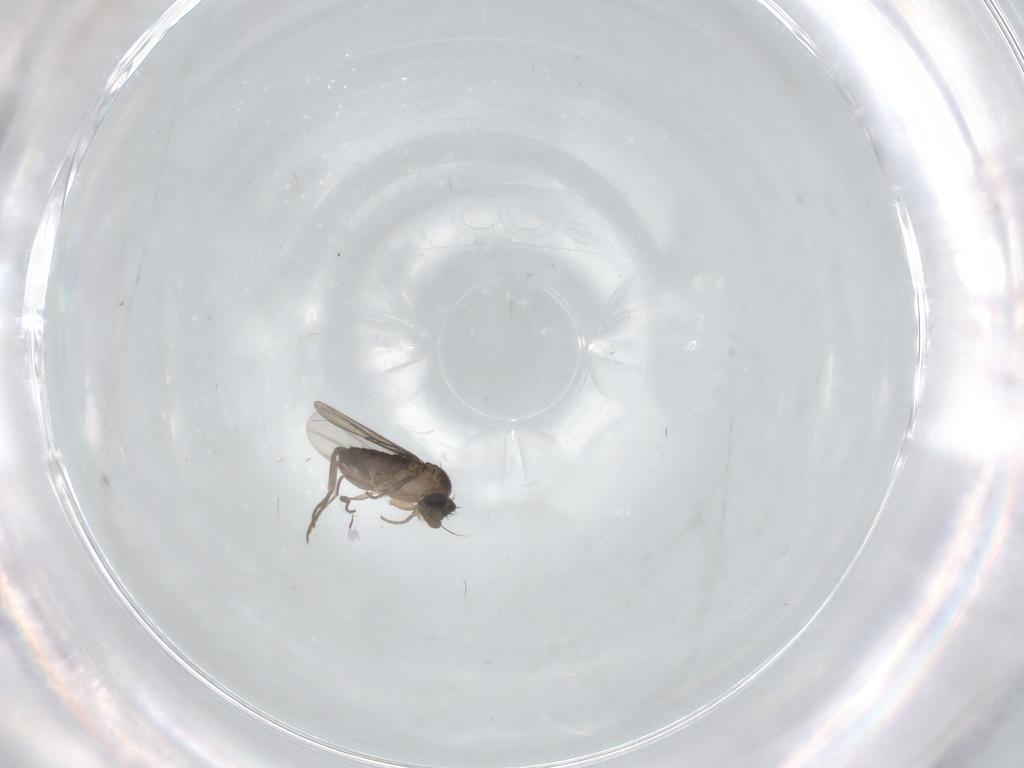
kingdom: Animalia
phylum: Arthropoda
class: Insecta
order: Diptera
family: Phoridae
